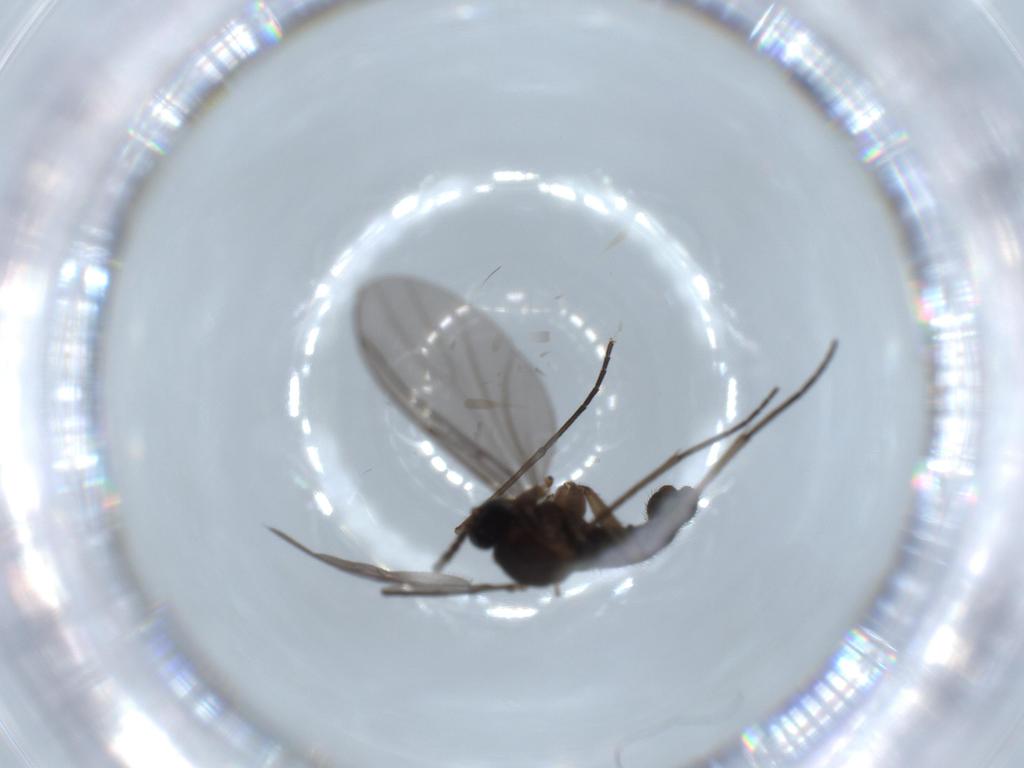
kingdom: Animalia
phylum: Arthropoda
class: Insecta
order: Diptera
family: Sciaridae
